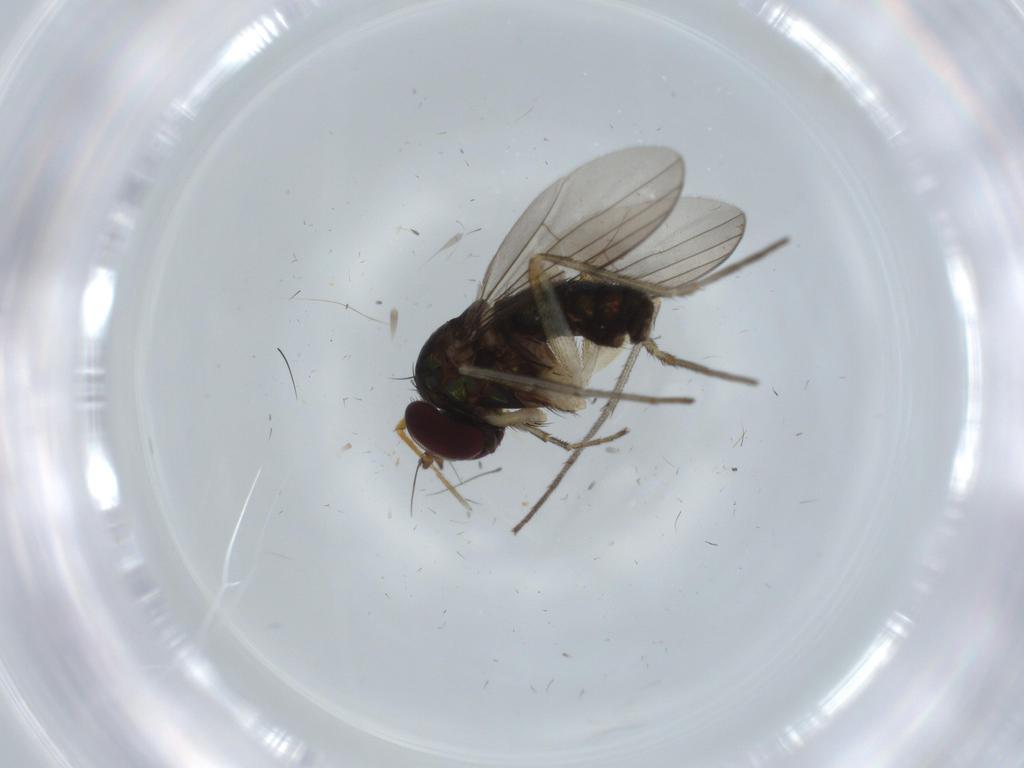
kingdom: Animalia
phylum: Arthropoda
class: Insecta
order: Diptera
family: Dolichopodidae
